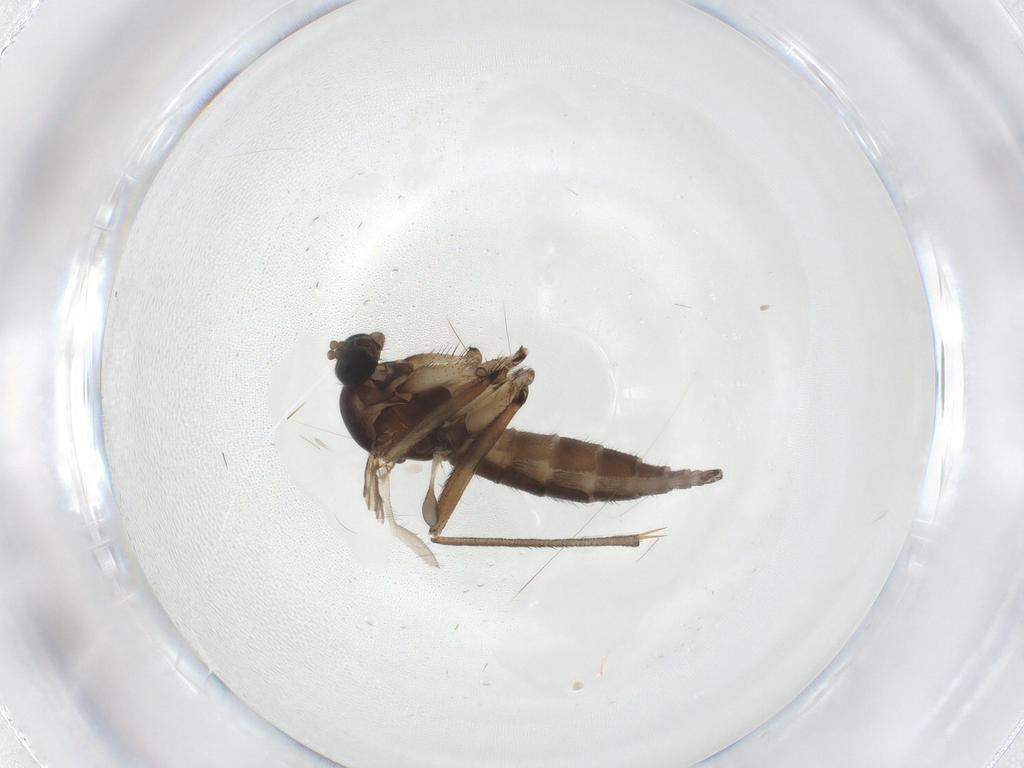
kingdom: Animalia
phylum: Arthropoda
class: Insecta
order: Diptera
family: Sciaridae
